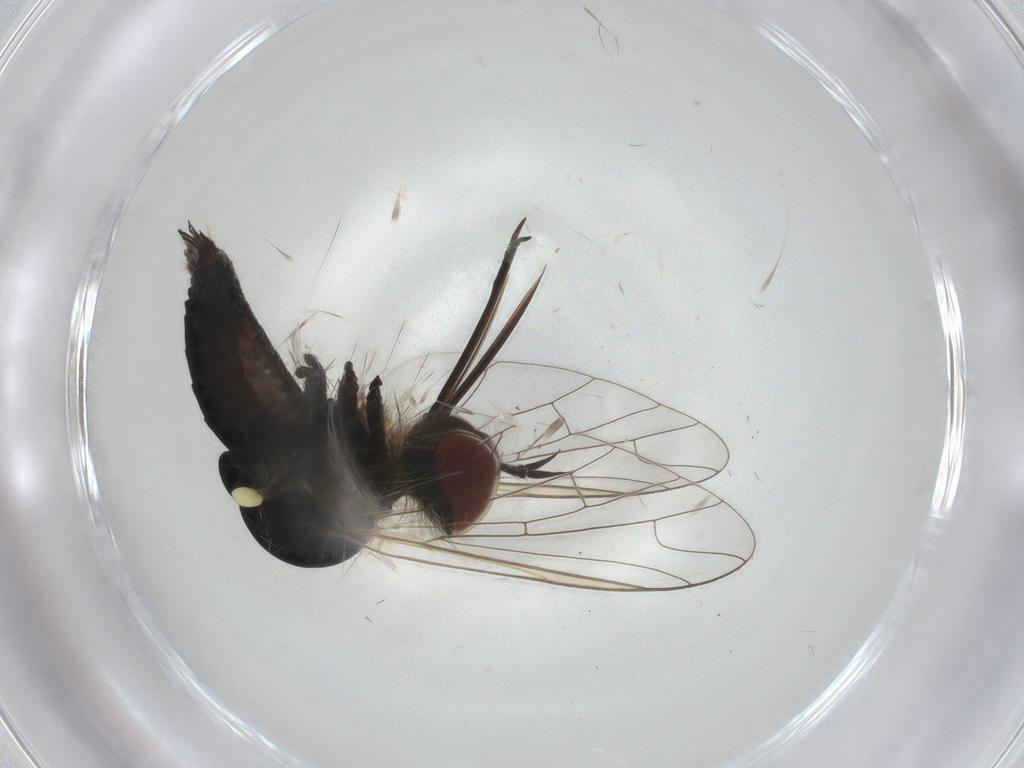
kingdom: Animalia
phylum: Arthropoda
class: Insecta
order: Diptera
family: Bombyliidae
